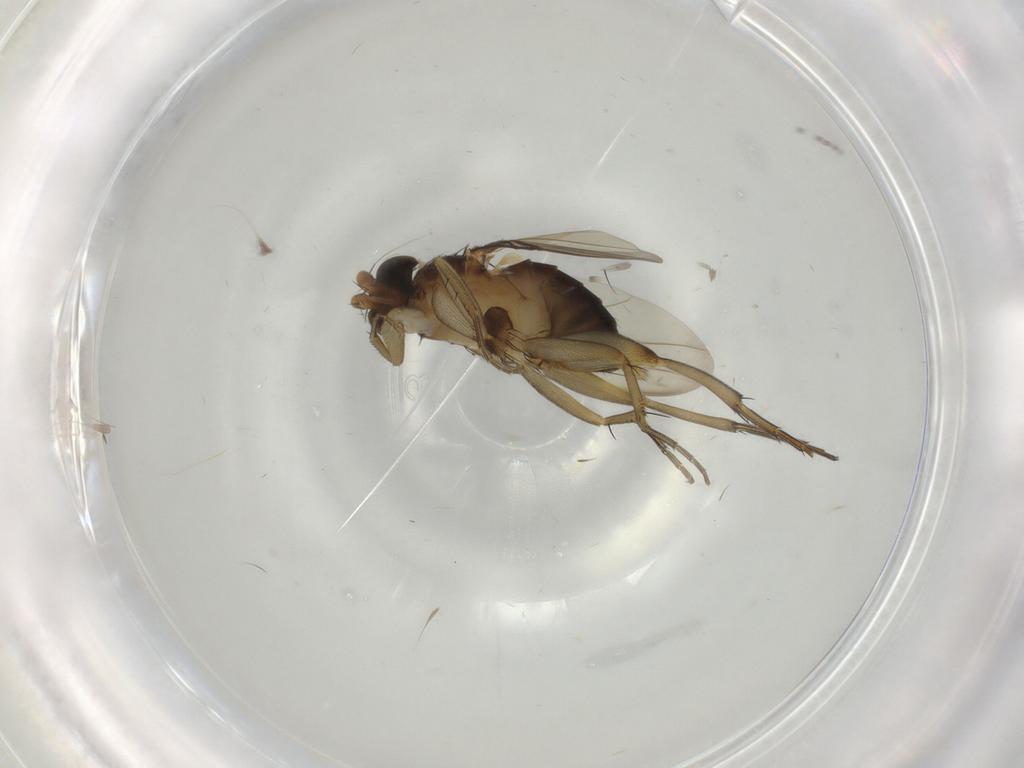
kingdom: Animalia
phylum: Arthropoda
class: Insecta
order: Diptera
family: Phoridae
